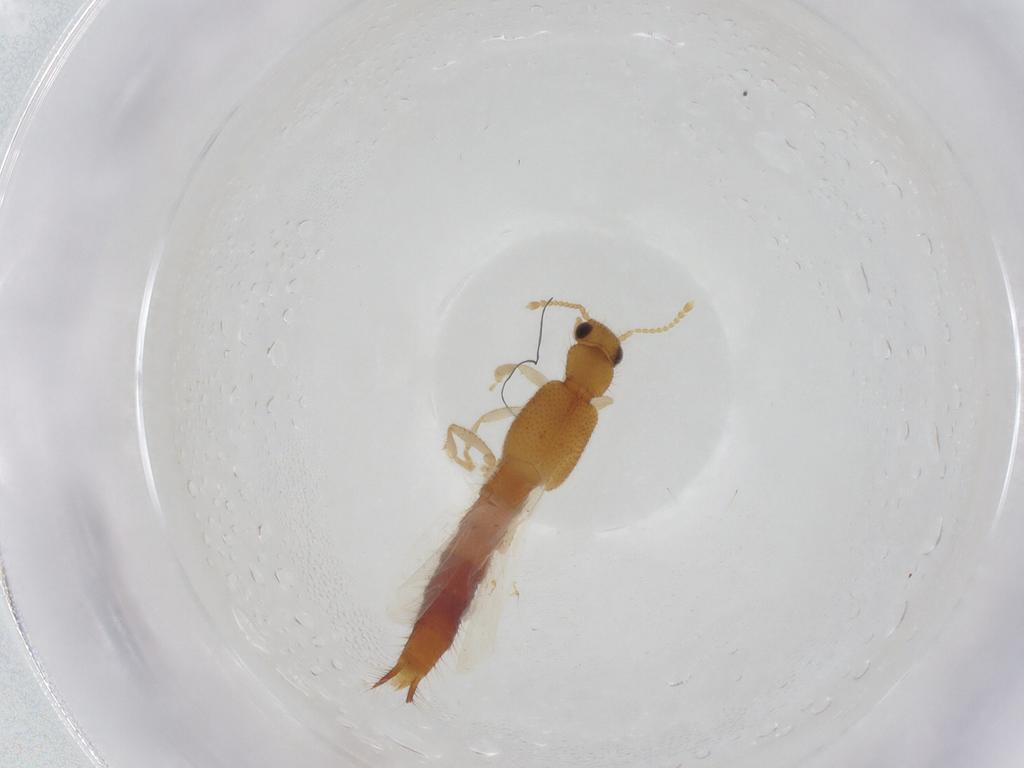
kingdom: Animalia
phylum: Arthropoda
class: Insecta
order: Coleoptera
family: Staphylinidae
